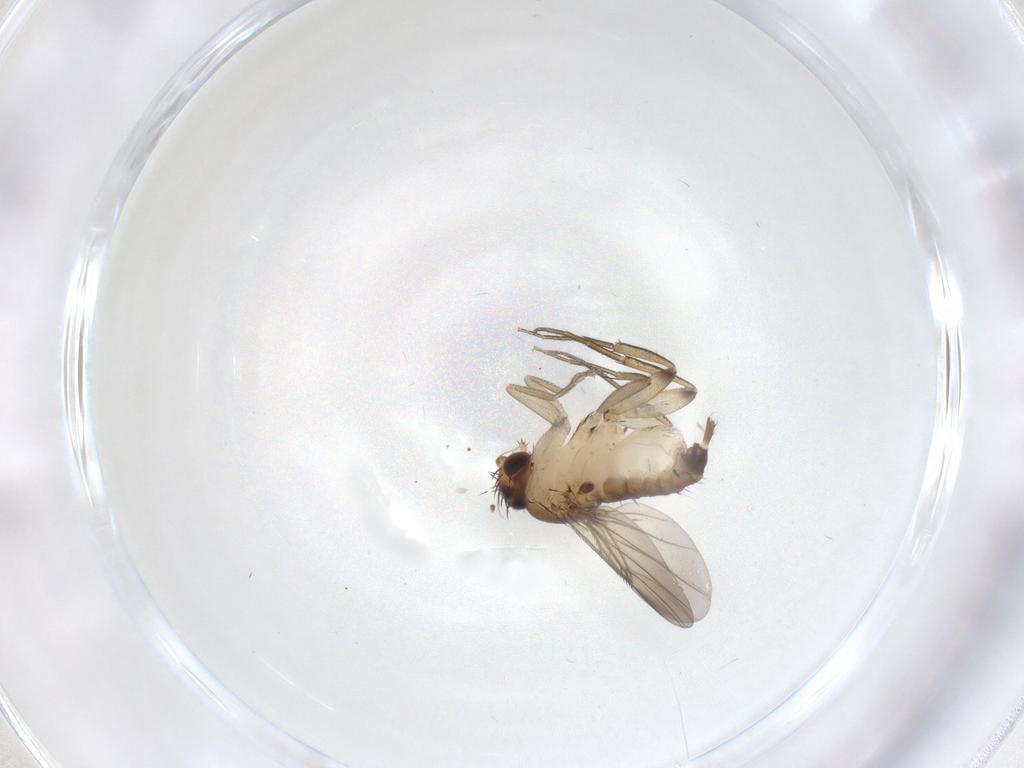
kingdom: Animalia
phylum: Arthropoda
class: Insecta
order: Diptera
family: Phoridae
